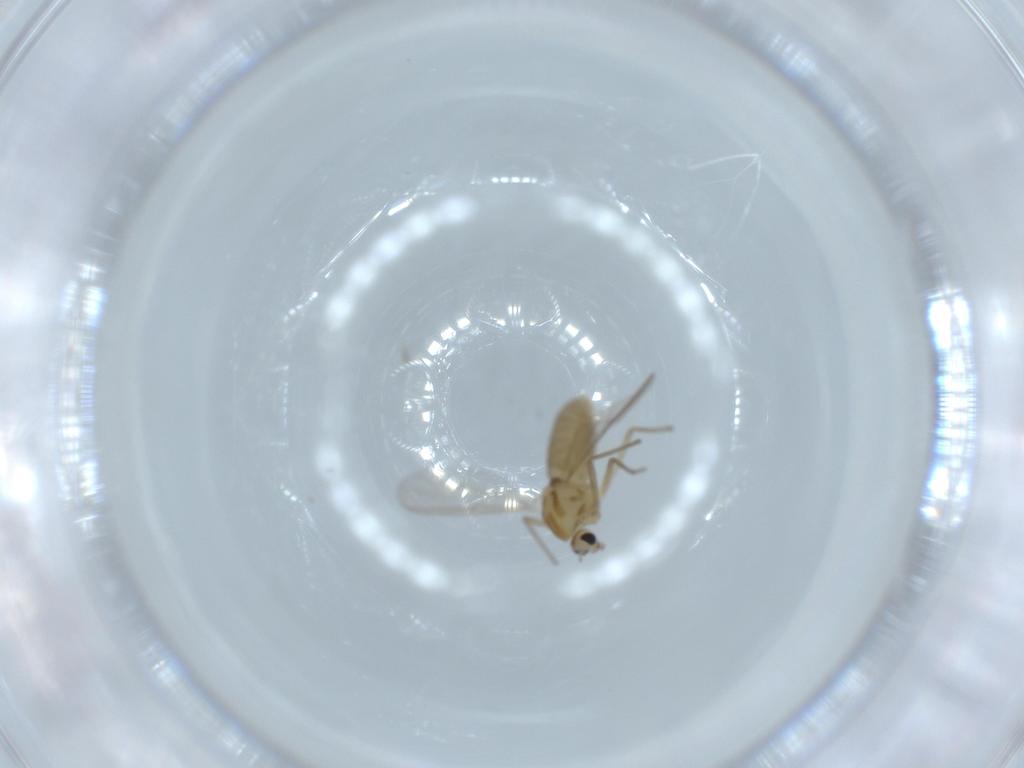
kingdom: Animalia
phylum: Arthropoda
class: Insecta
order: Diptera
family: Chironomidae
